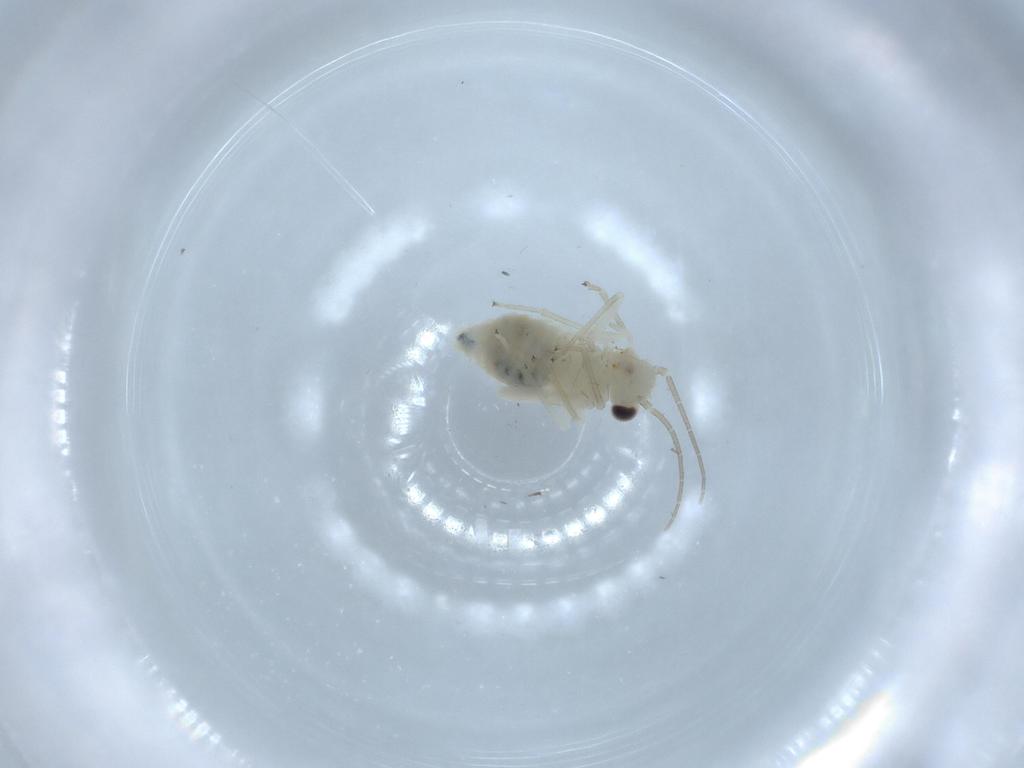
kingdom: Animalia
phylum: Arthropoda
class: Insecta
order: Psocodea
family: Caeciliusidae
